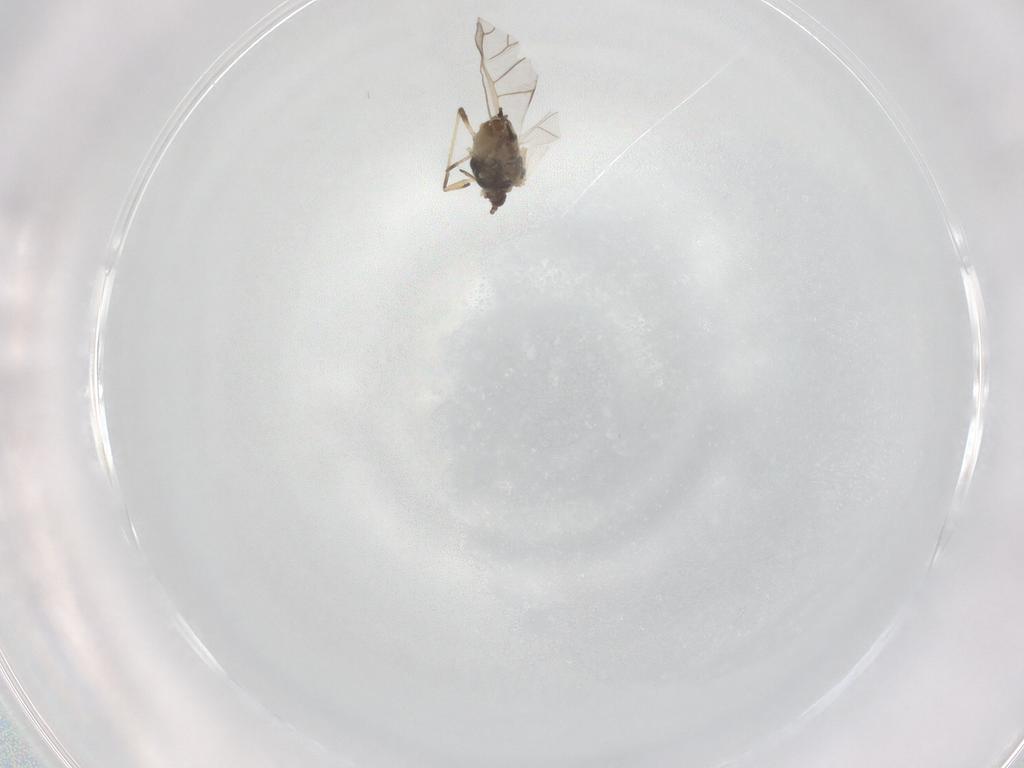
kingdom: Animalia
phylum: Arthropoda
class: Insecta
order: Hemiptera
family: Aphididae
